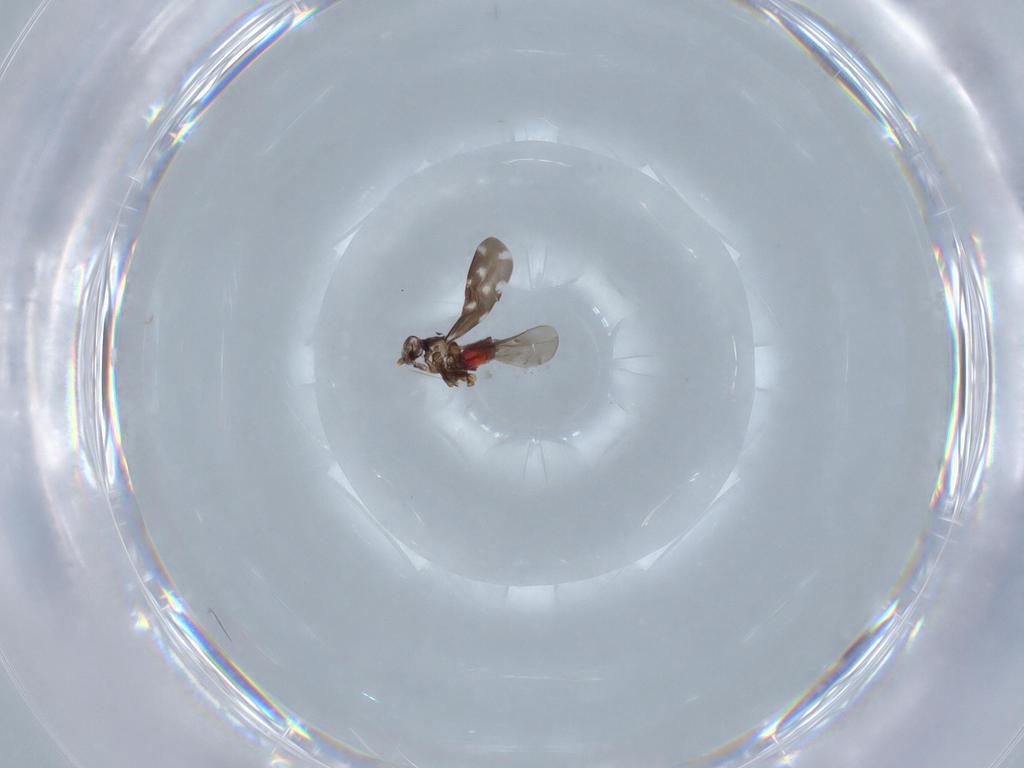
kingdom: Animalia
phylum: Arthropoda
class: Insecta
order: Hemiptera
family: Aleyrodidae
